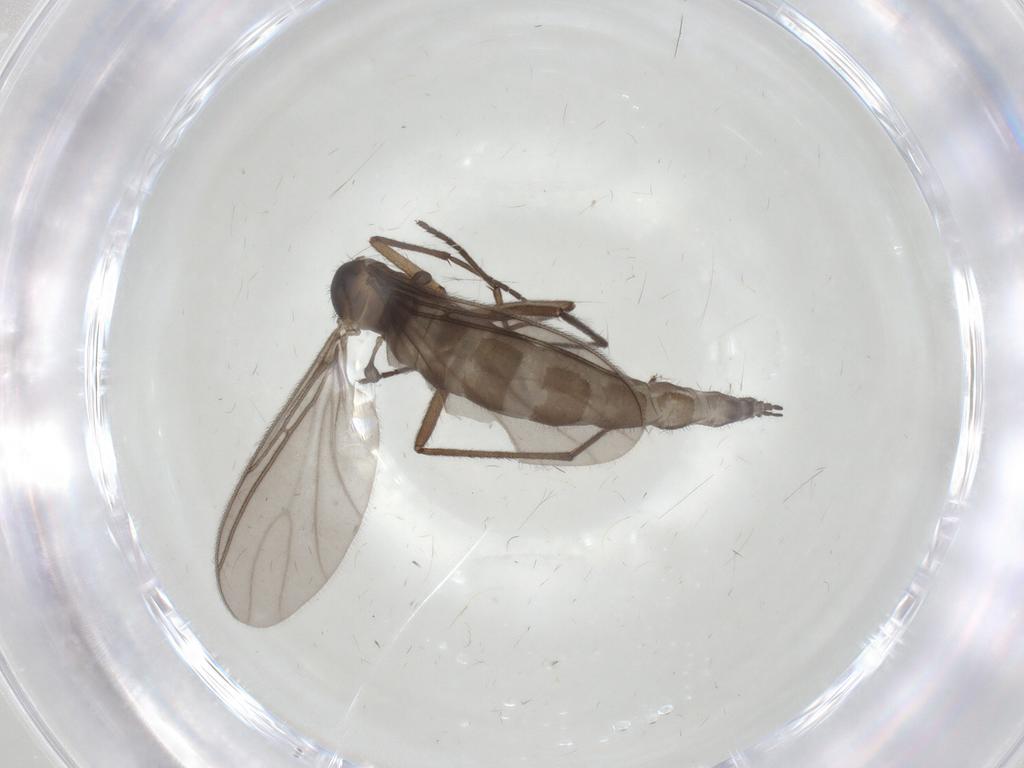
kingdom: Animalia
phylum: Arthropoda
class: Insecta
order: Diptera
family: Sciaridae
